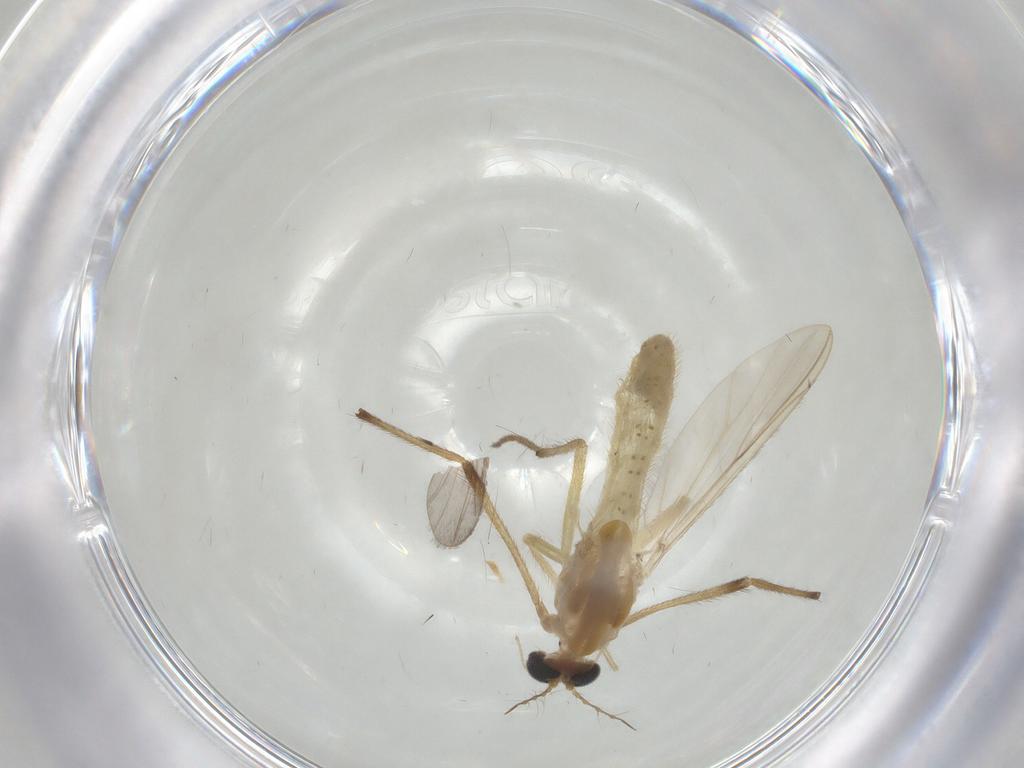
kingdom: Animalia
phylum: Arthropoda
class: Insecta
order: Diptera
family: Chironomidae
